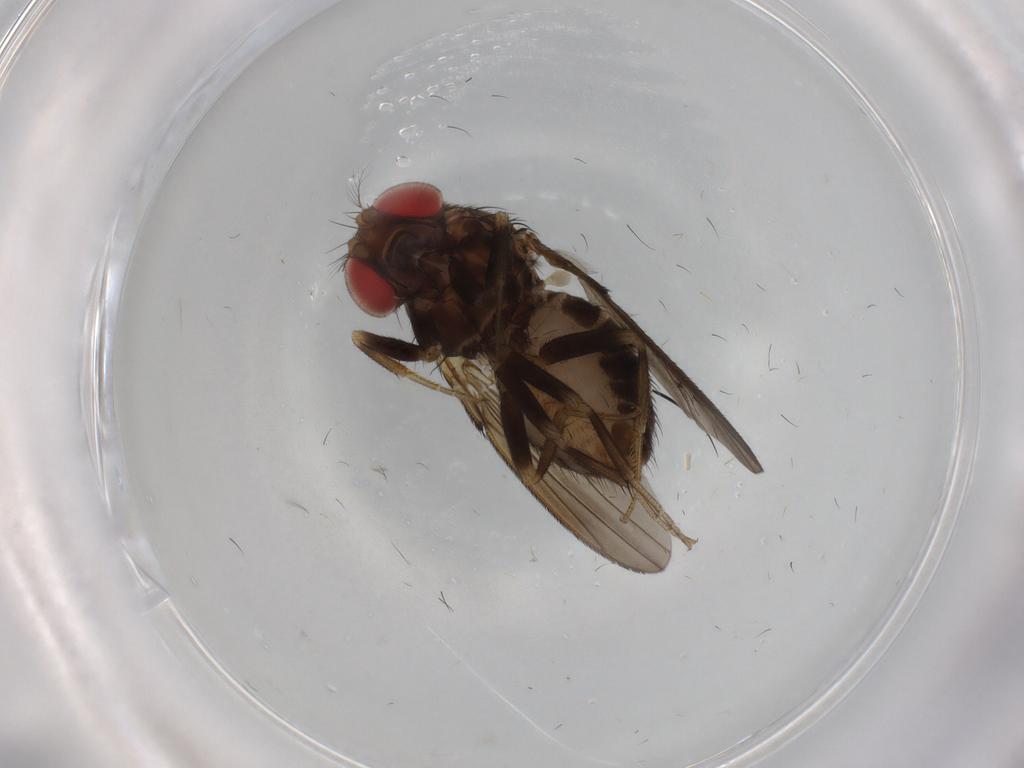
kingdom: Animalia
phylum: Arthropoda
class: Insecta
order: Diptera
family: Drosophilidae
